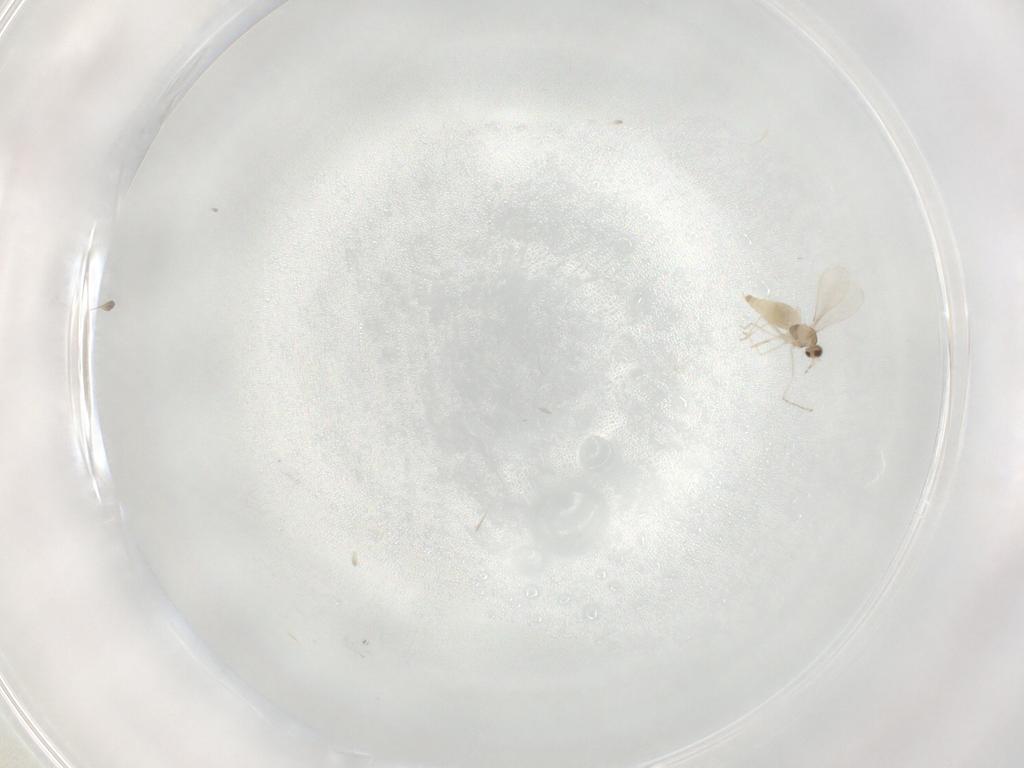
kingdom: Animalia
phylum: Arthropoda
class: Insecta
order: Diptera
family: Cecidomyiidae
